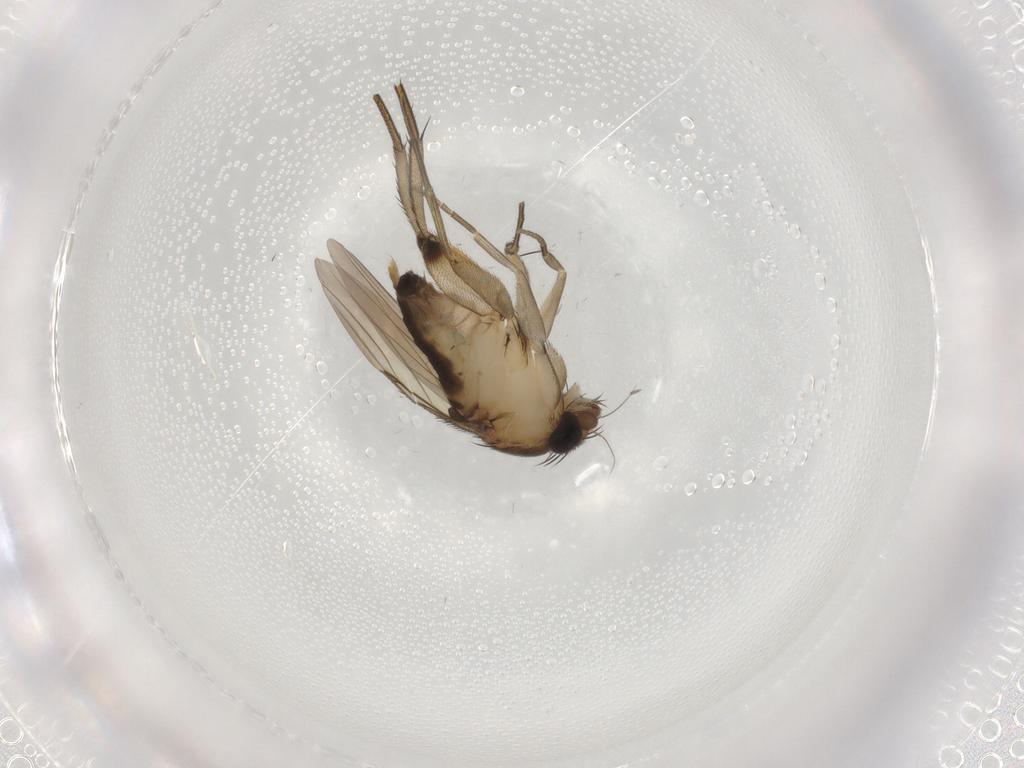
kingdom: Animalia
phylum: Arthropoda
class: Insecta
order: Diptera
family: Phoridae
